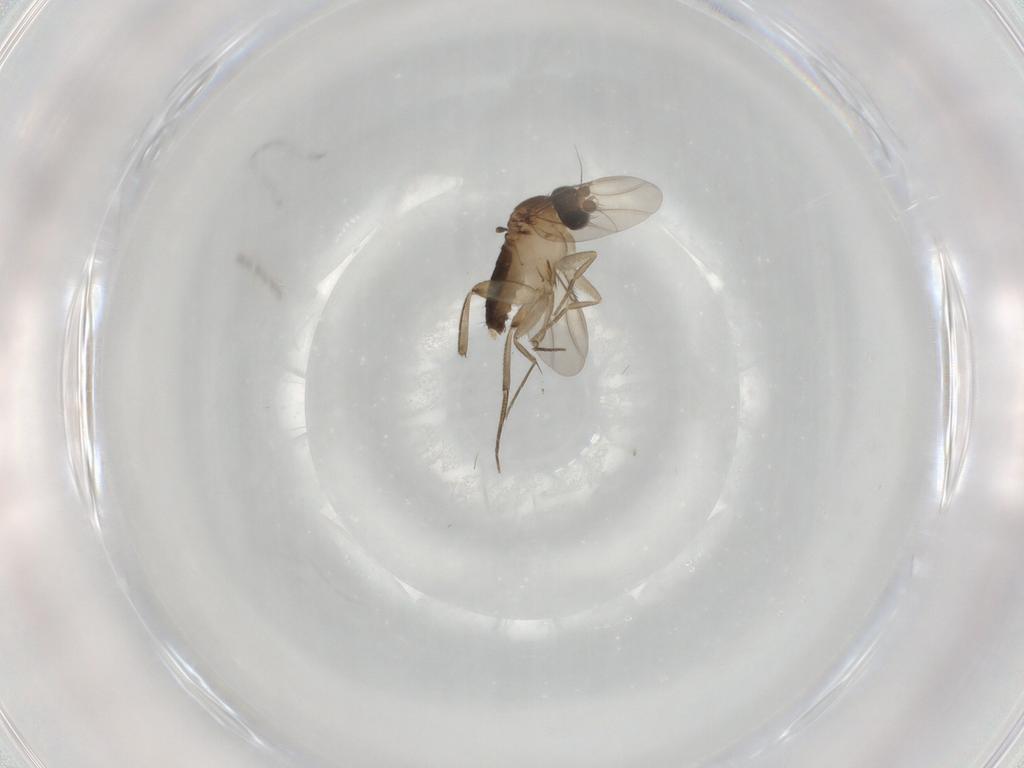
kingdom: Animalia
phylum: Arthropoda
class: Insecta
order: Diptera
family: Phoridae
